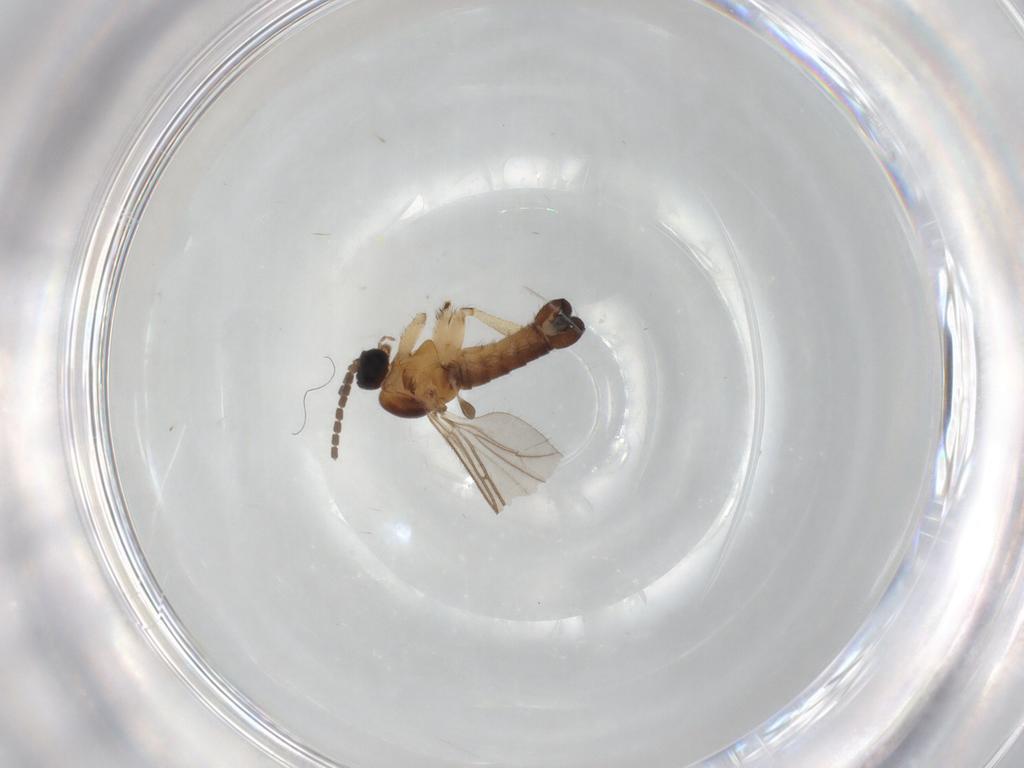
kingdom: Animalia
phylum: Arthropoda
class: Insecta
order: Diptera
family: Sciaridae
